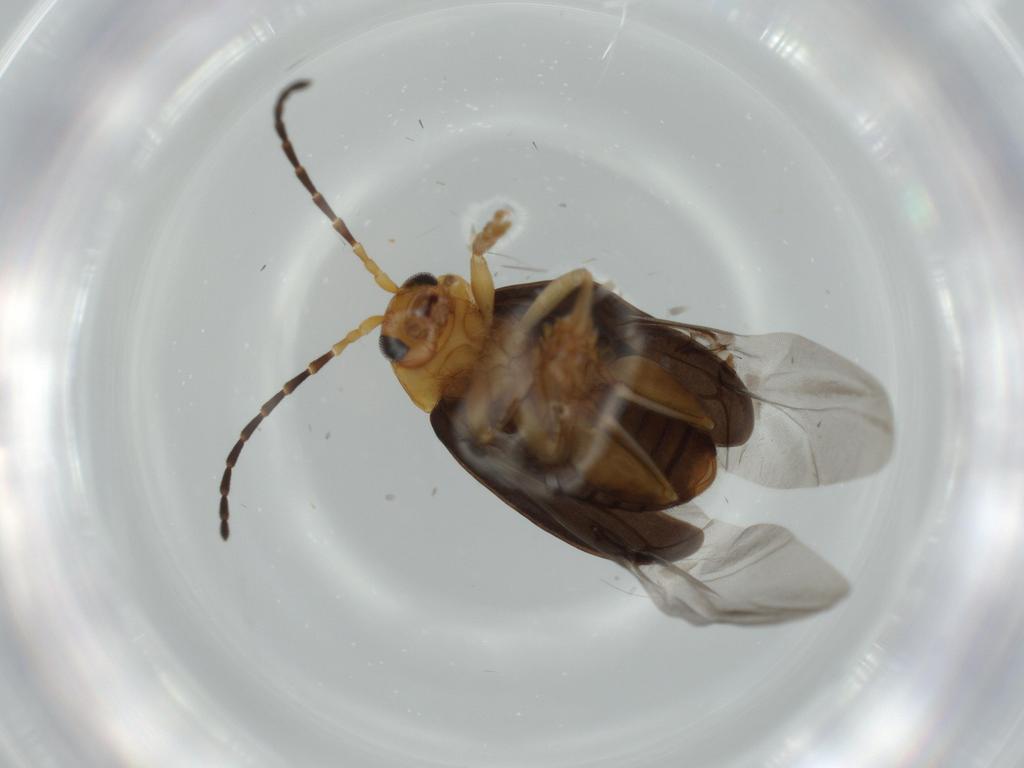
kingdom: Animalia
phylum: Arthropoda
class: Insecta
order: Coleoptera
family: Chrysomelidae
